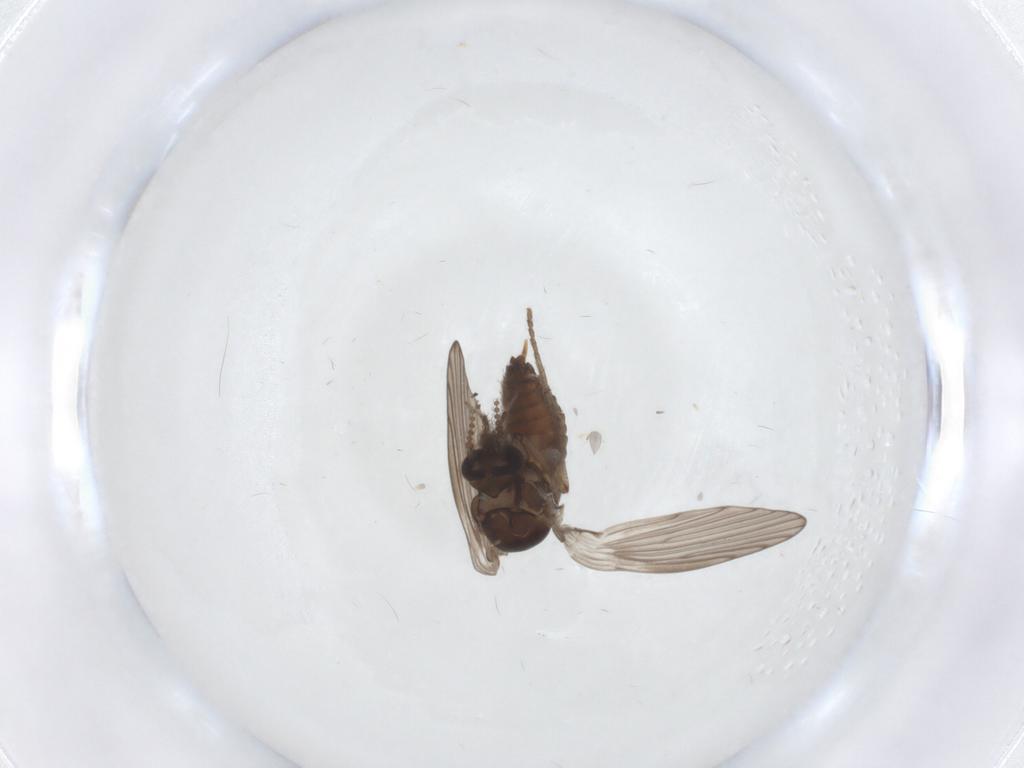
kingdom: Animalia
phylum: Arthropoda
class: Insecta
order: Diptera
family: Psychodidae
